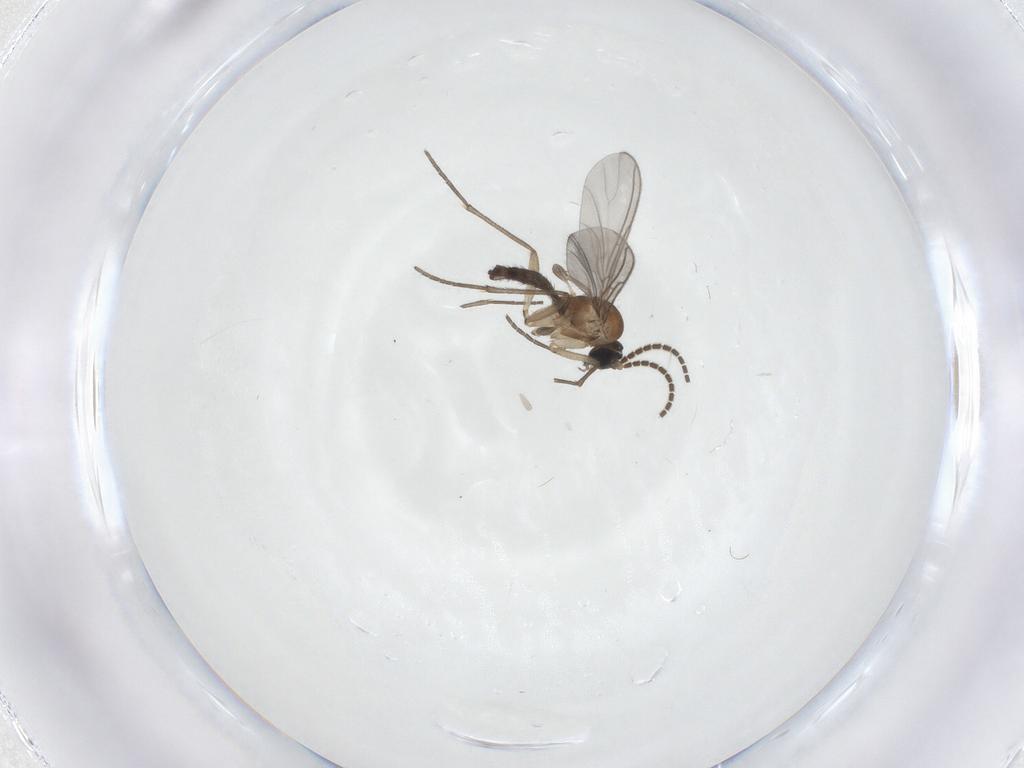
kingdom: Animalia
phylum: Arthropoda
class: Insecta
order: Diptera
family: Sciaridae
